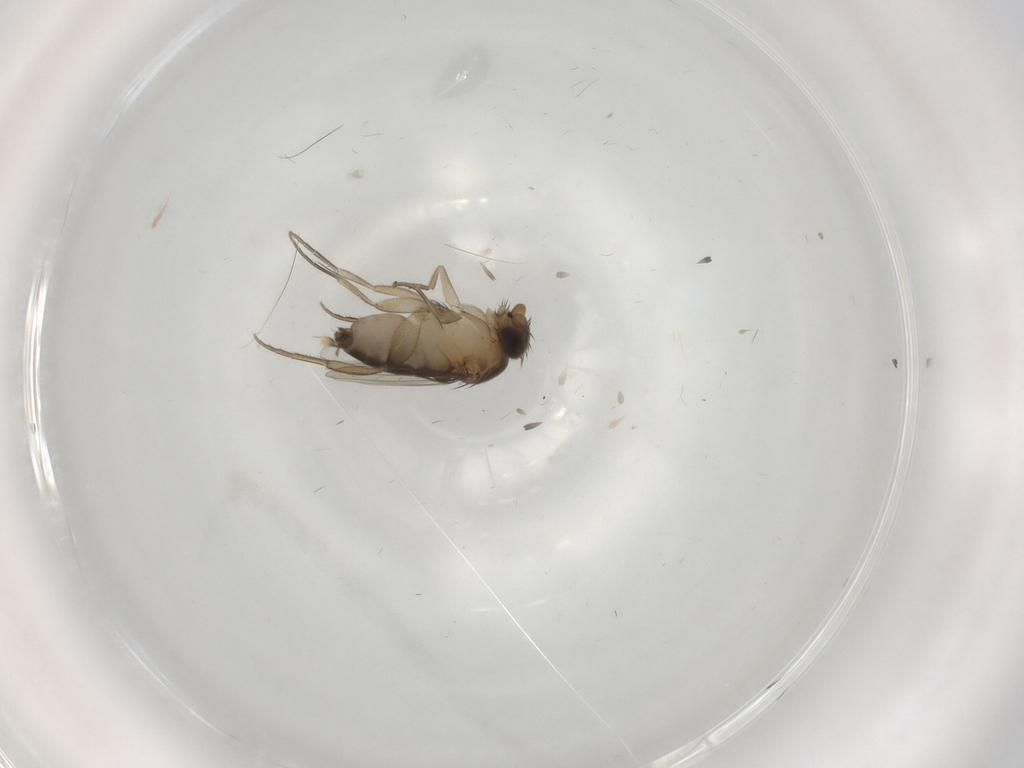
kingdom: Animalia
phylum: Arthropoda
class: Insecta
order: Diptera
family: Phoridae
